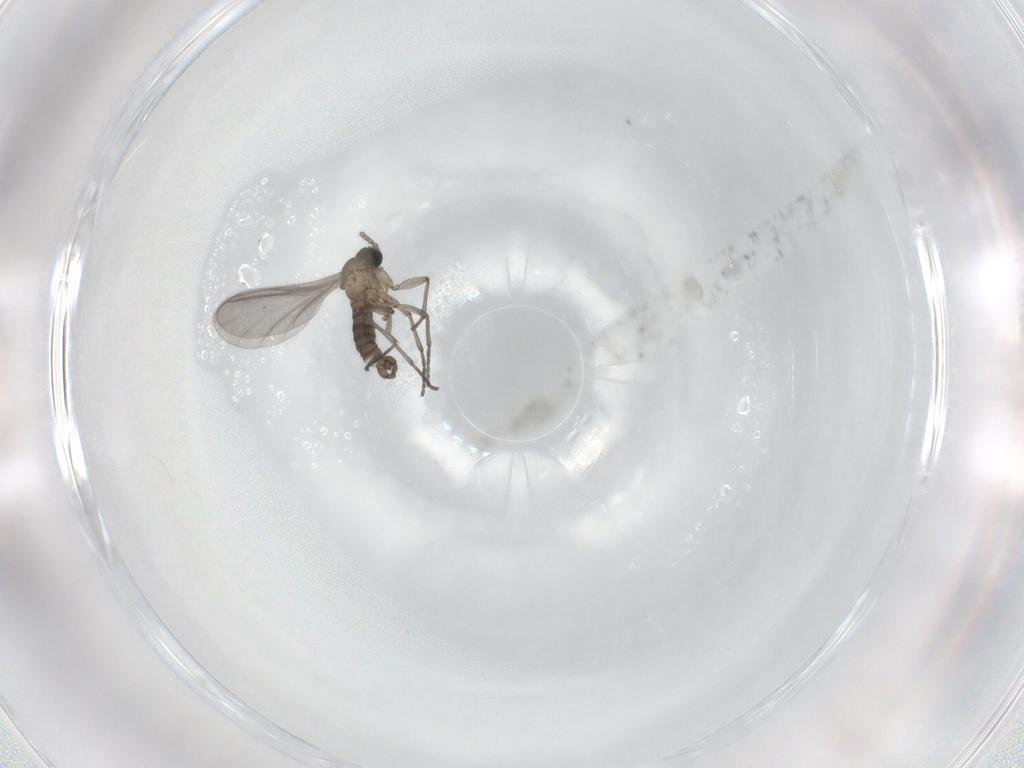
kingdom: Animalia
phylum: Arthropoda
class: Insecta
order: Diptera
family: Sciaridae
